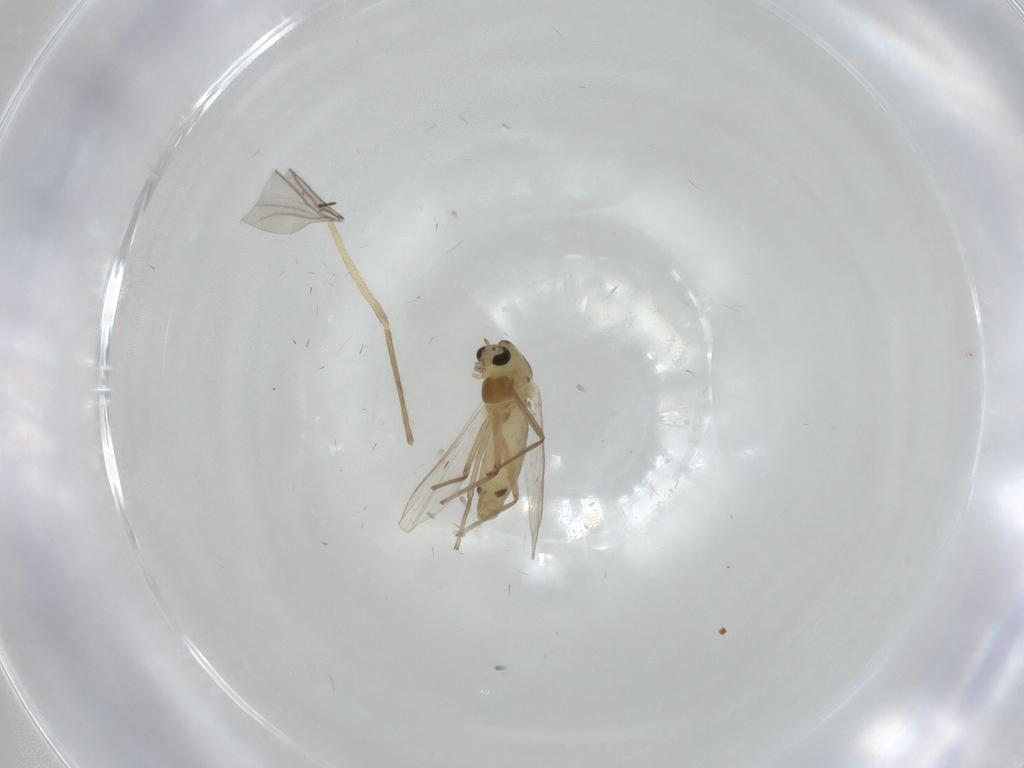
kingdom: Animalia
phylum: Arthropoda
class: Insecta
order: Diptera
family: Chironomidae
